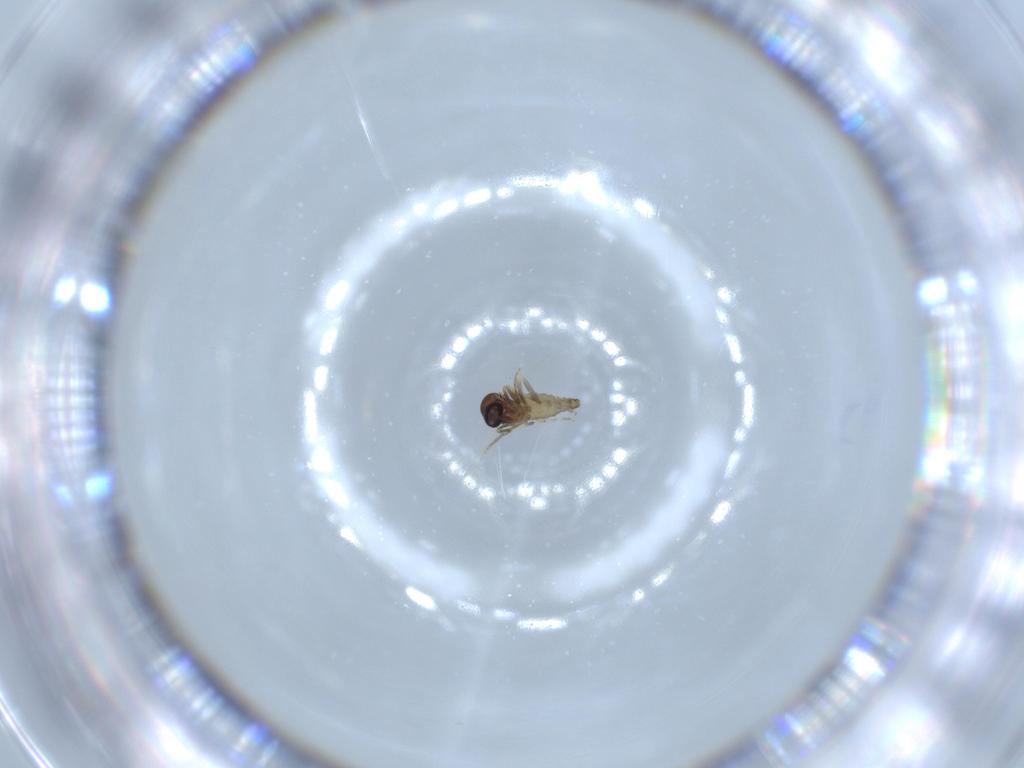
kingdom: Animalia
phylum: Arthropoda
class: Insecta
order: Diptera
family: Ceratopogonidae
